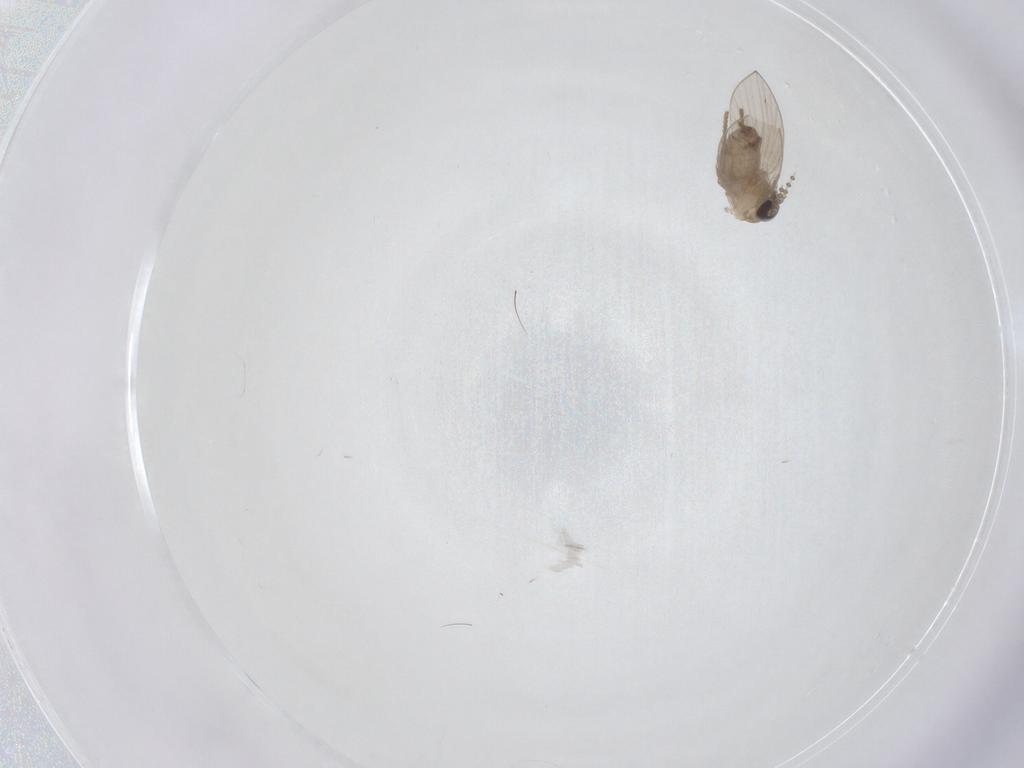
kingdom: Animalia
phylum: Arthropoda
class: Insecta
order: Diptera
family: Psychodidae
